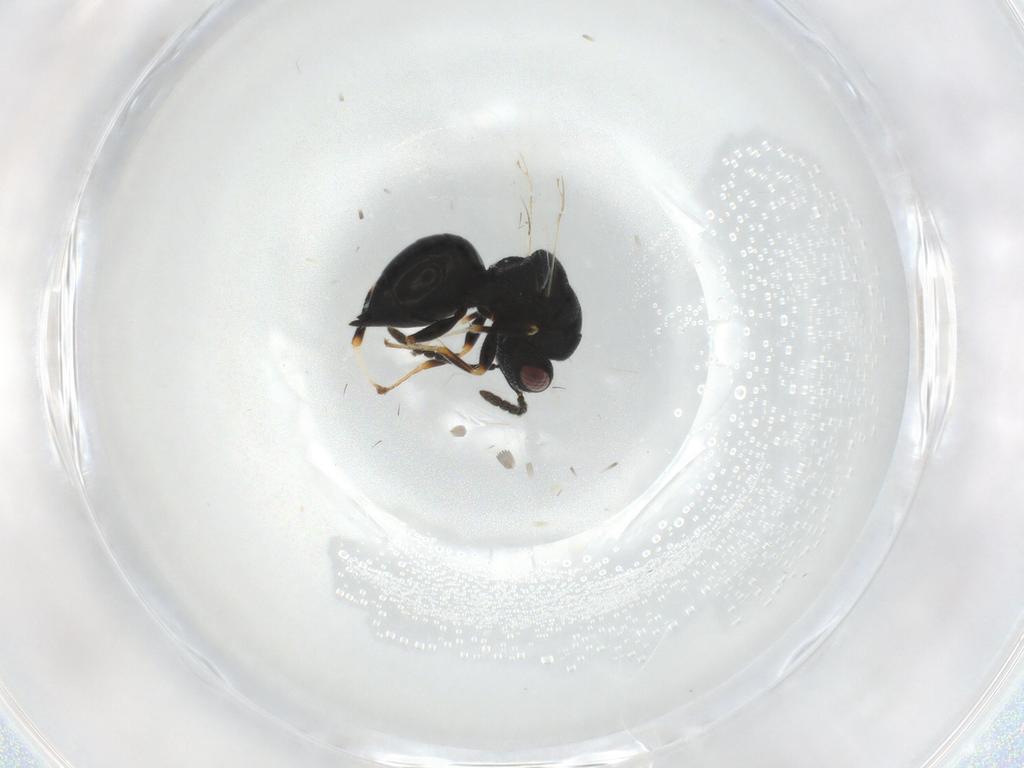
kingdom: Animalia
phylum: Arthropoda
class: Insecta
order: Hymenoptera
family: Eurytomidae
